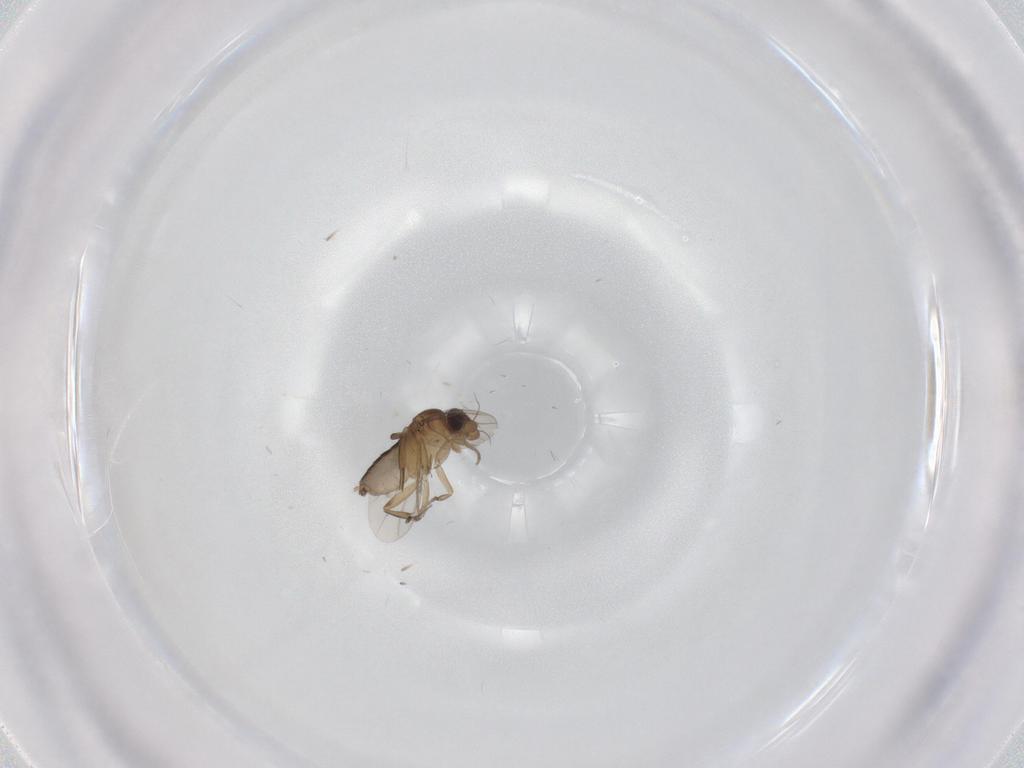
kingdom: Animalia
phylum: Arthropoda
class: Insecta
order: Diptera
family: Phoridae
